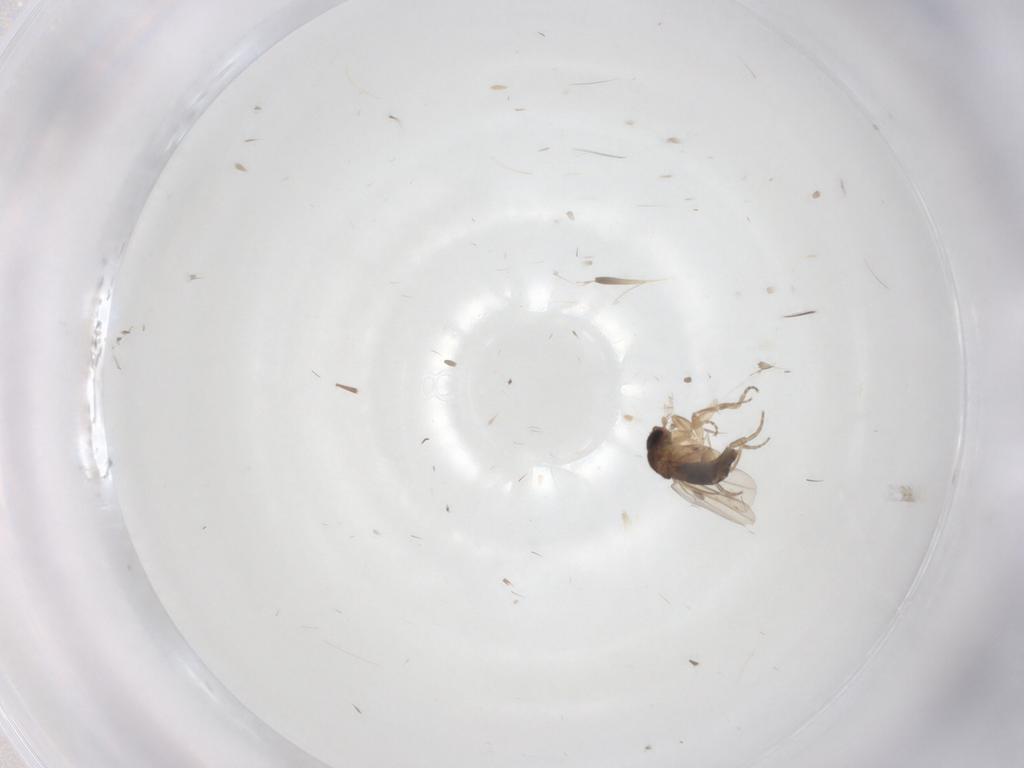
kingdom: Animalia
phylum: Arthropoda
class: Insecta
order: Diptera
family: Phoridae
